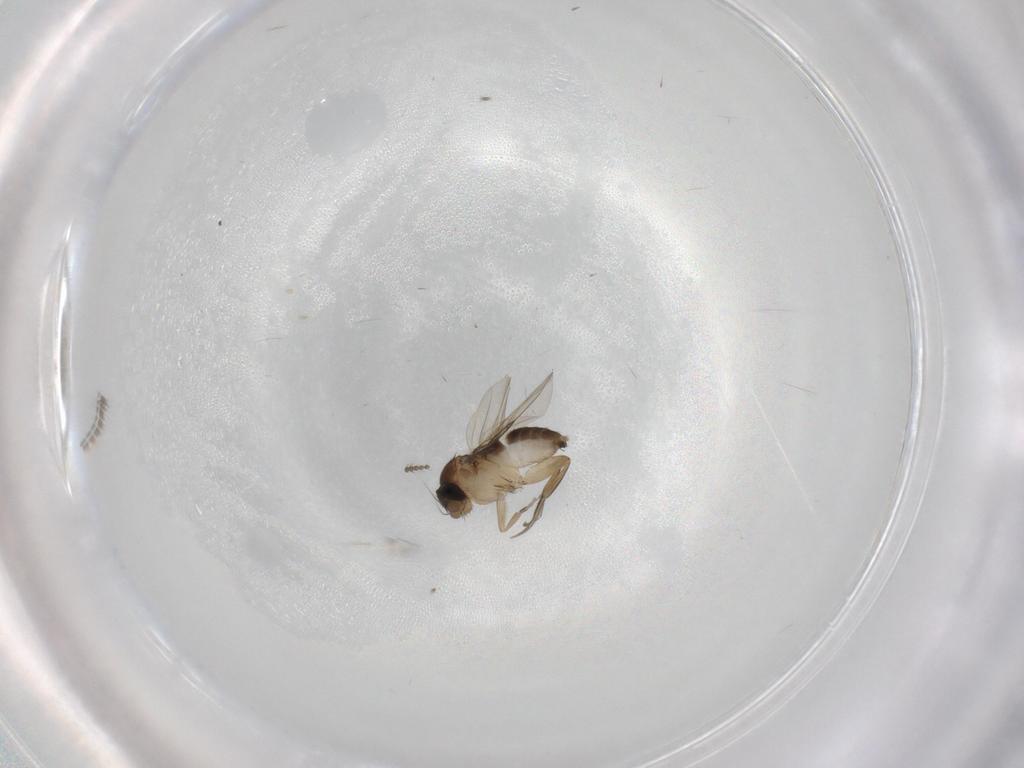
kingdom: Animalia
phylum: Arthropoda
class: Insecta
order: Diptera
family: Phoridae
